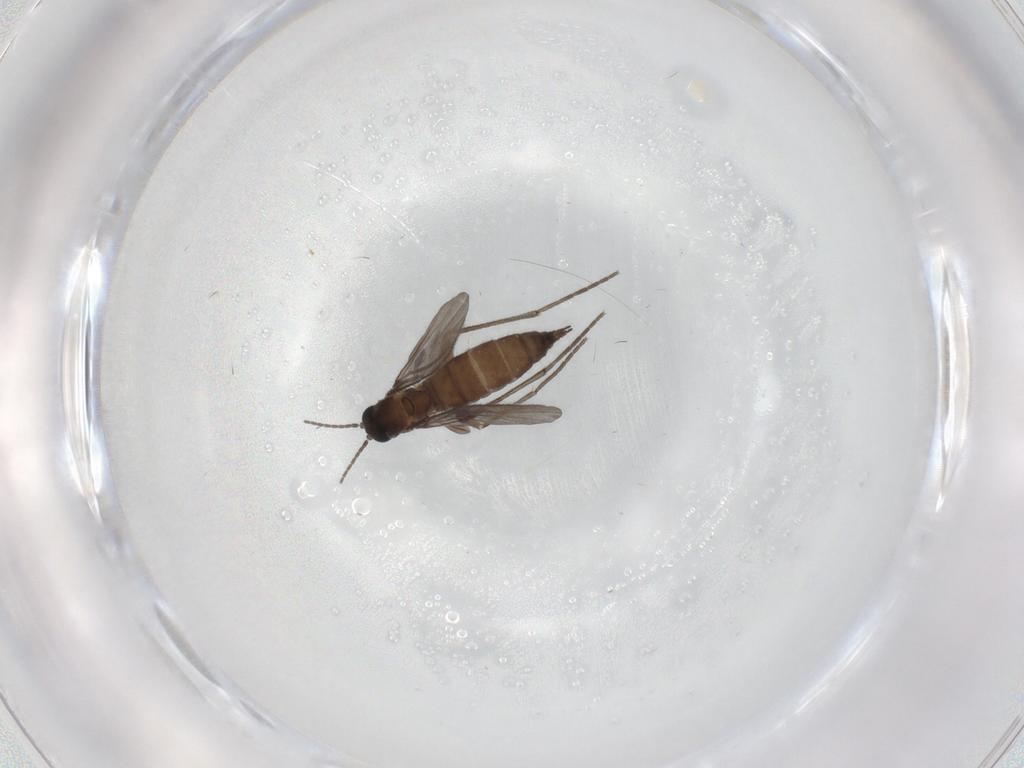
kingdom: Animalia
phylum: Arthropoda
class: Insecta
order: Diptera
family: Sciaridae
